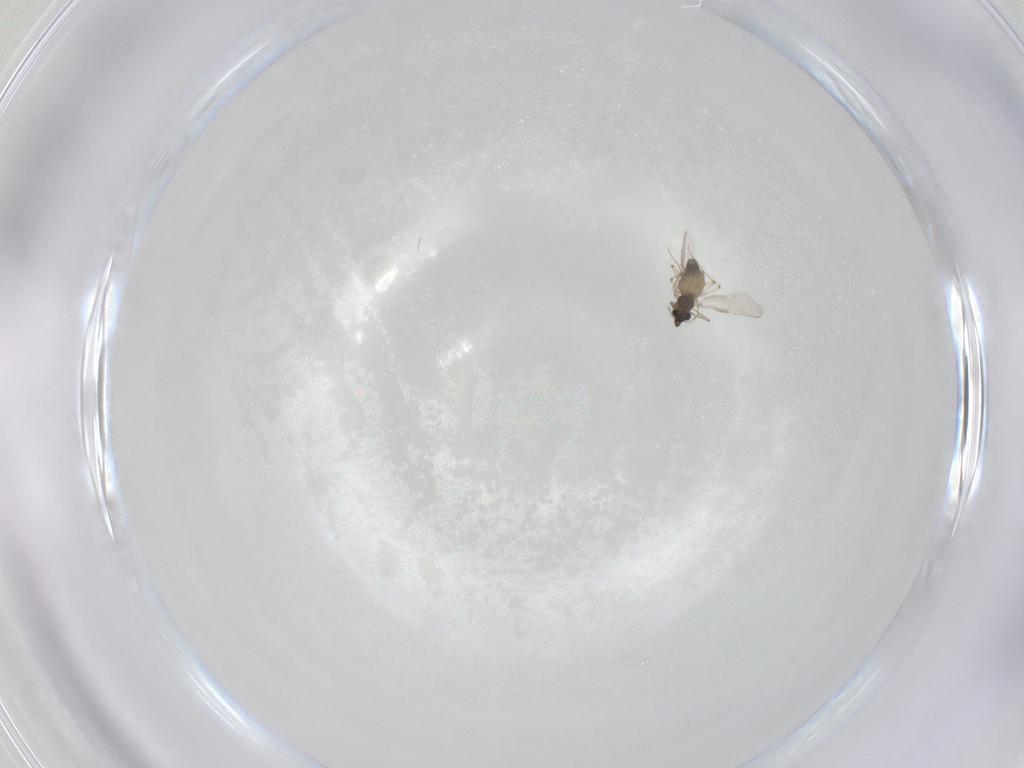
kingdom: Animalia
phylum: Arthropoda
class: Insecta
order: Diptera
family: Chironomidae
